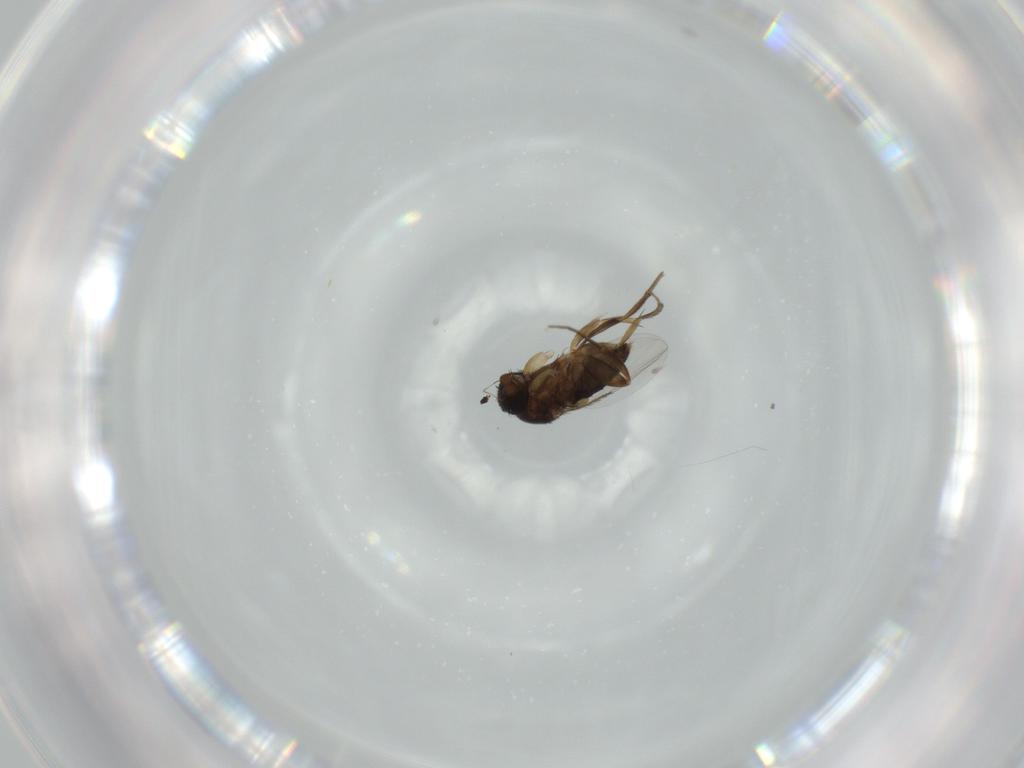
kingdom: Animalia
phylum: Arthropoda
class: Insecta
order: Diptera
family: Phoridae
